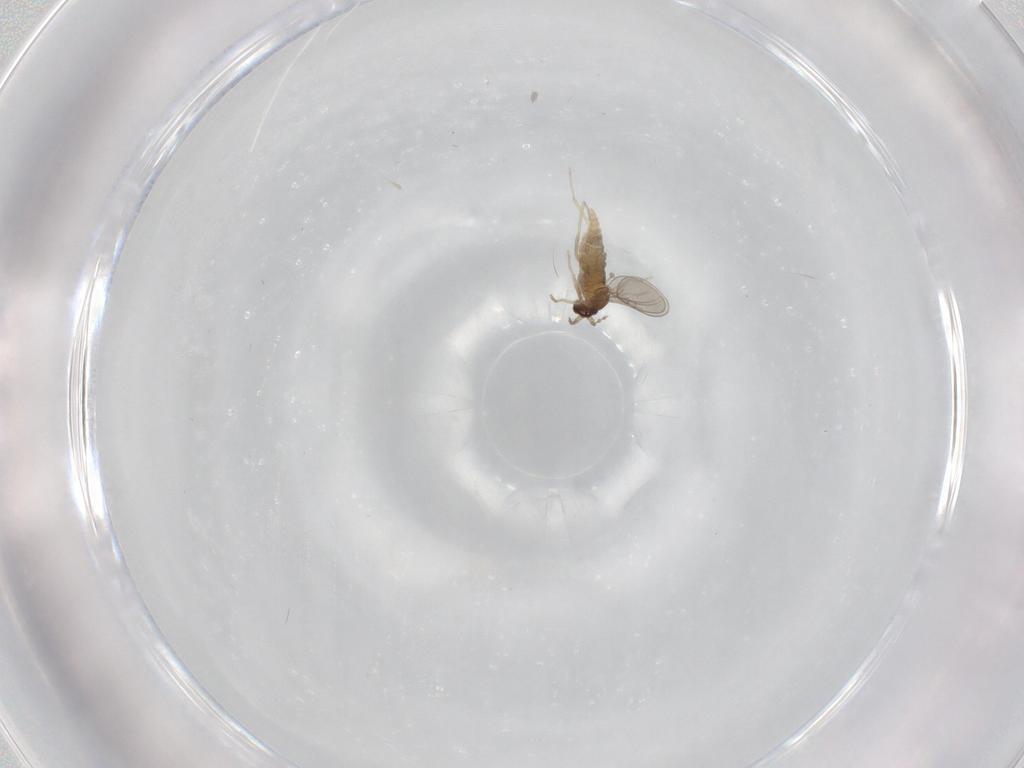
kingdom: Animalia
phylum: Arthropoda
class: Insecta
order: Diptera
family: Cecidomyiidae
